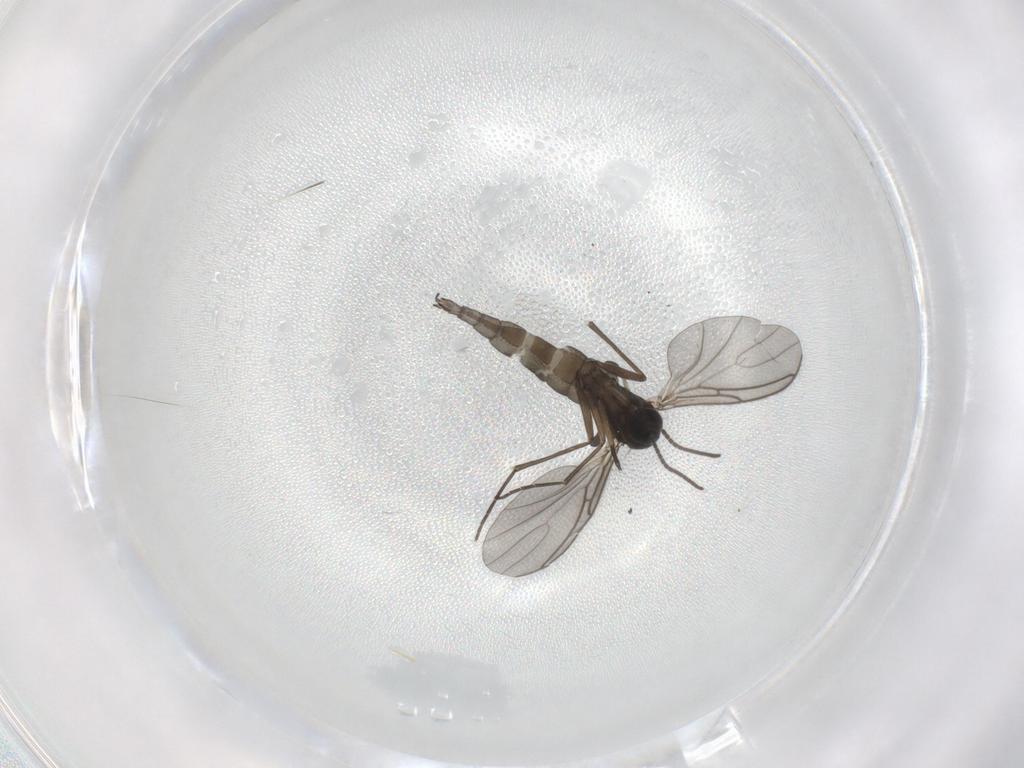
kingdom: Animalia
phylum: Arthropoda
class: Insecta
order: Diptera
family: Sciaridae
